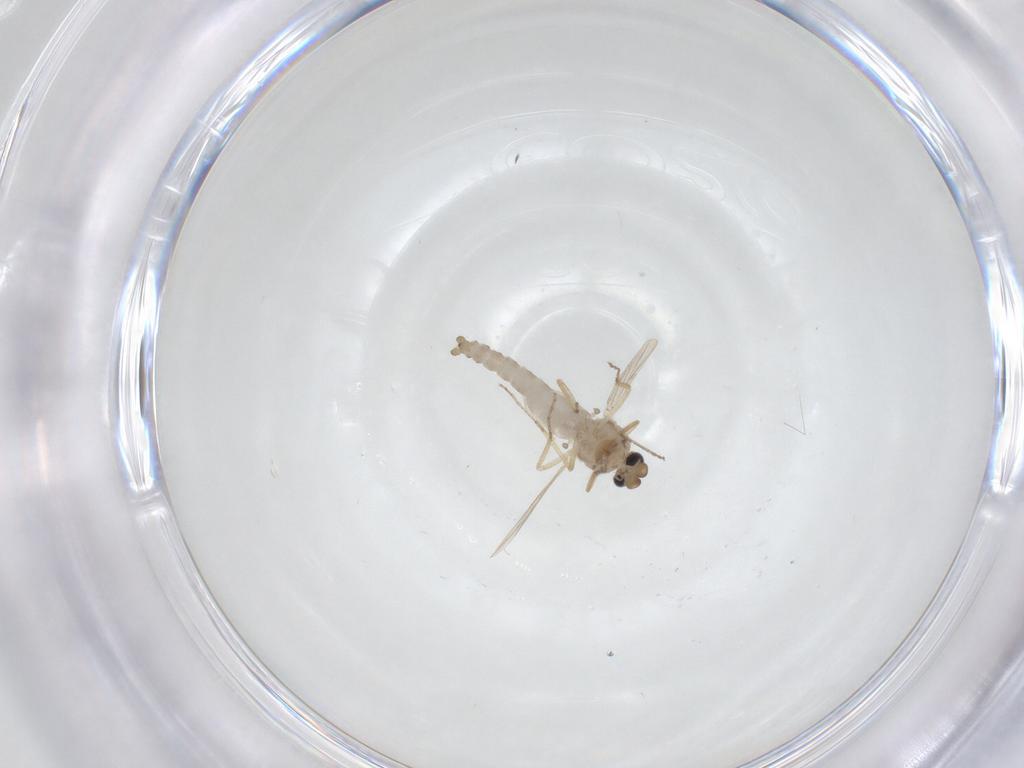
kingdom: Animalia
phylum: Arthropoda
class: Insecta
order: Diptera
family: Ceratopogonidae
